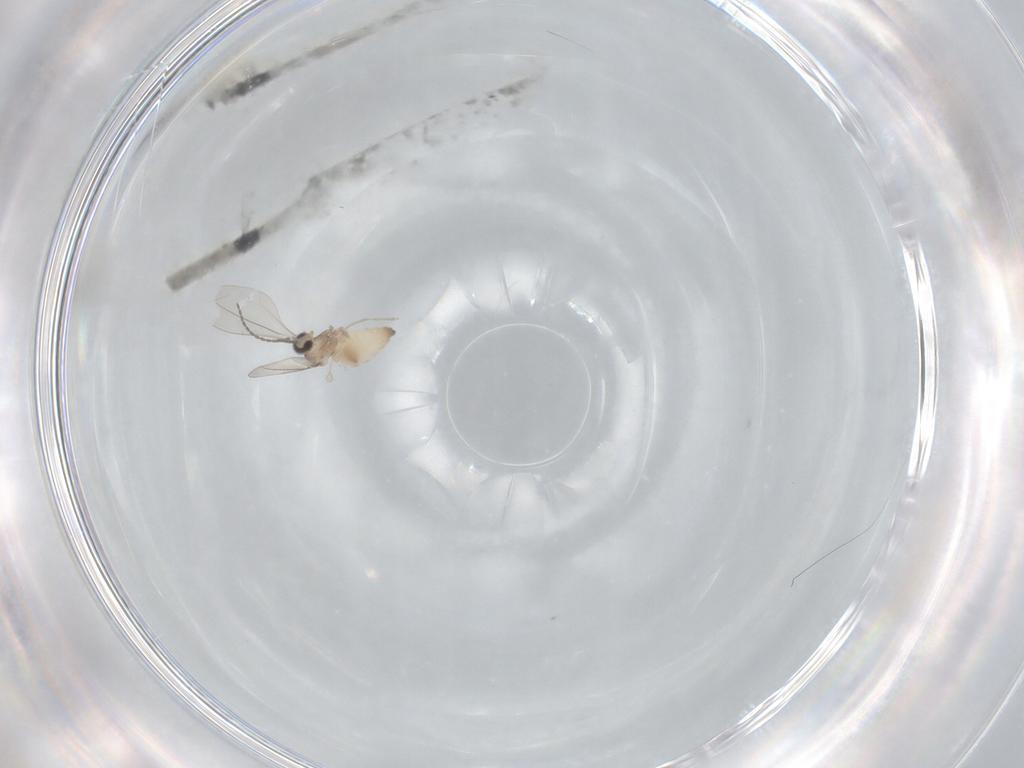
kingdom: Animalia
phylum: Arthropoda
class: Insecta
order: Diptera
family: Cecidomyiidae
